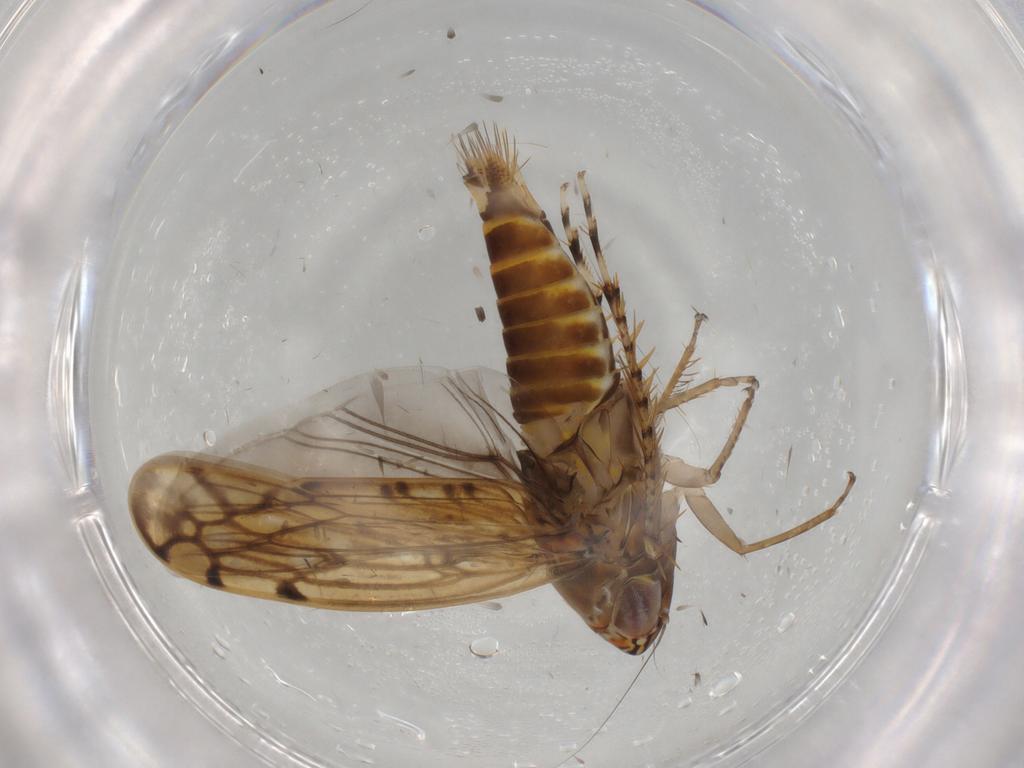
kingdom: Animalia
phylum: Arthropoda
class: Insecta
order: Hemiptera
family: Cicadellidae
